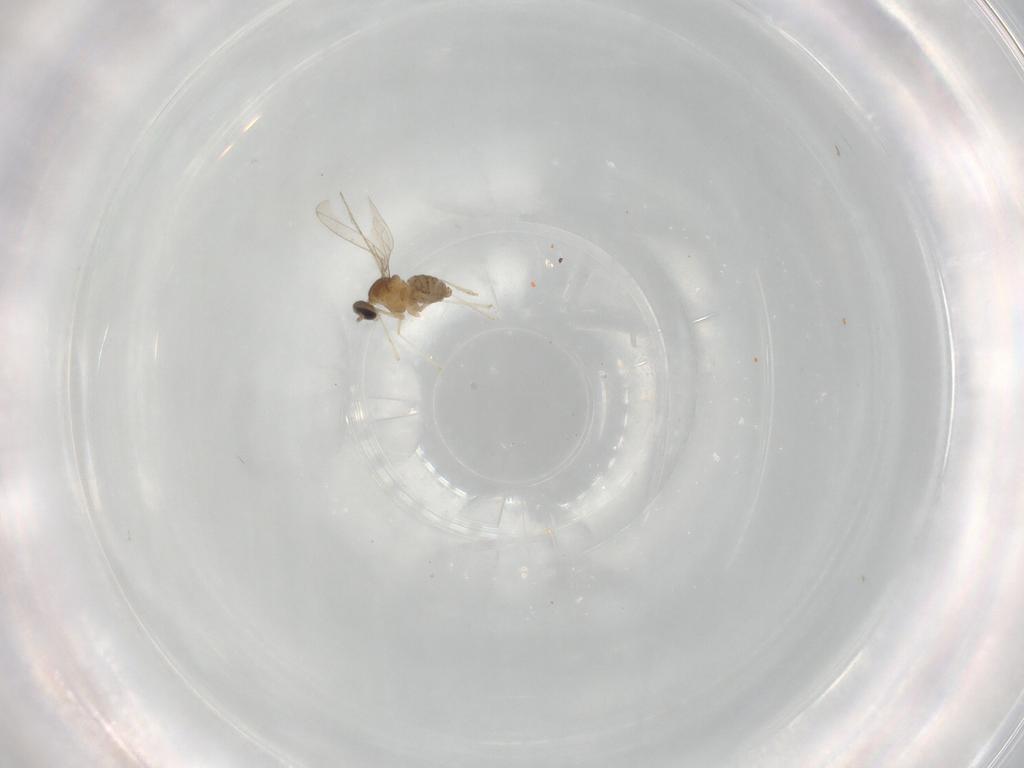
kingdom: Animalia
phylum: Arthropoda
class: Insecta
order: Diptera
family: Cecidomyiidae
